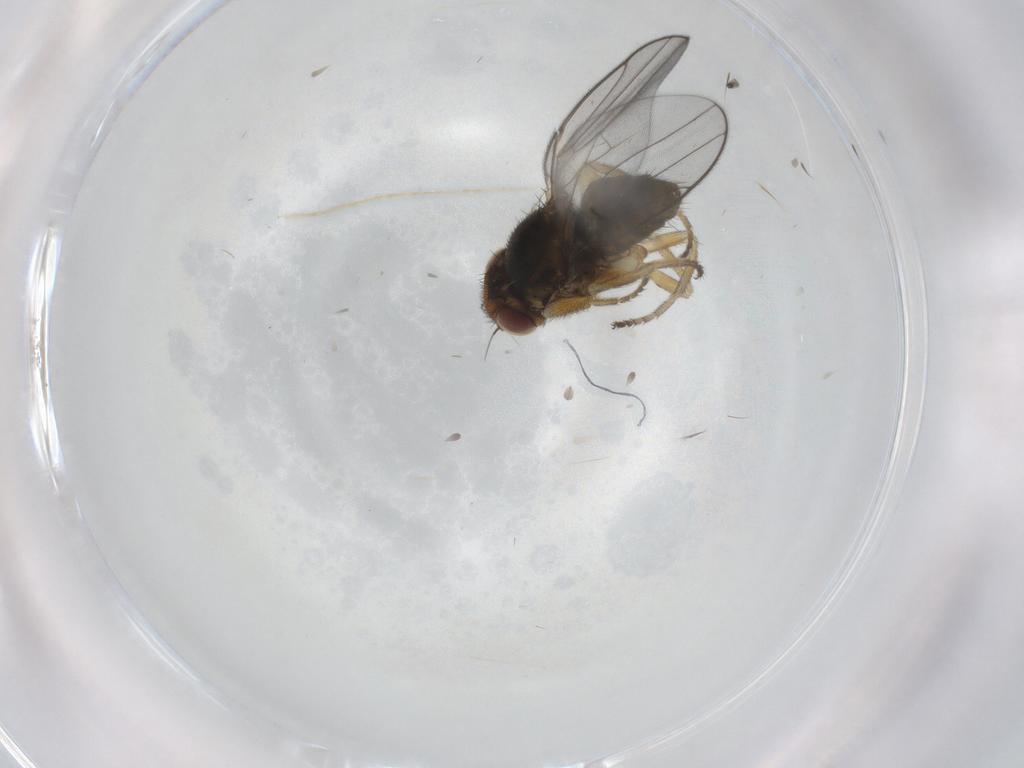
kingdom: Animalia
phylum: Arthropoda
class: Insecta
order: Diptera
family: Chloropidae
